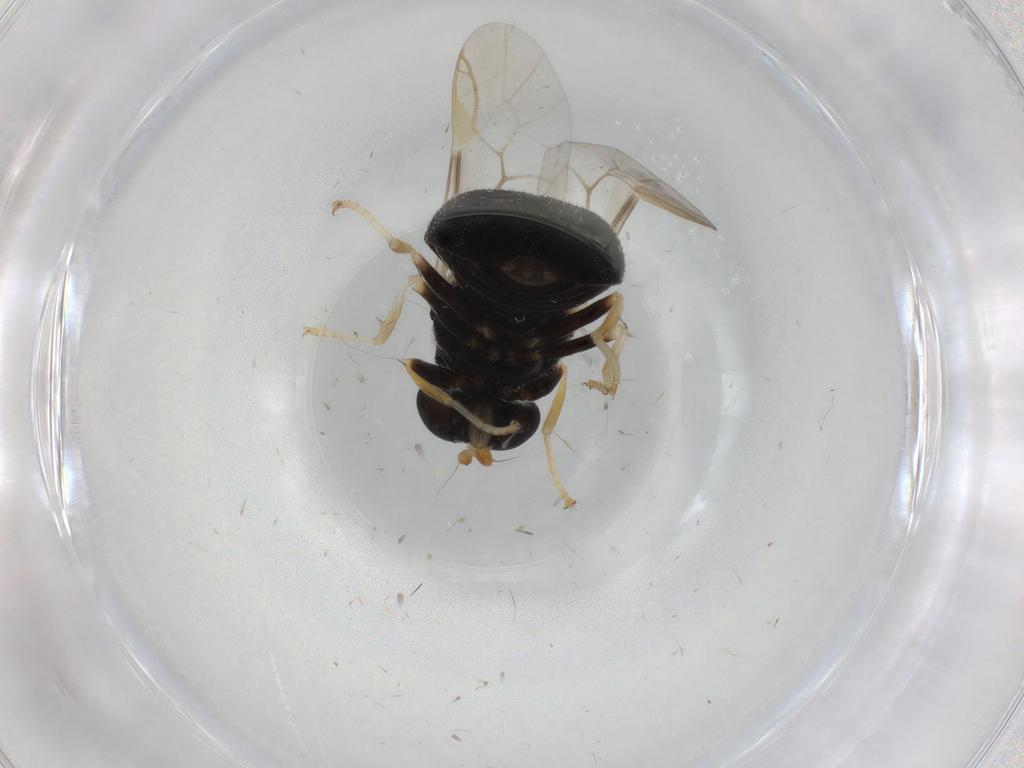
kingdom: Animalia
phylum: Arthropoda
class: Insecta
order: Diptera
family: Stratiomyidae
